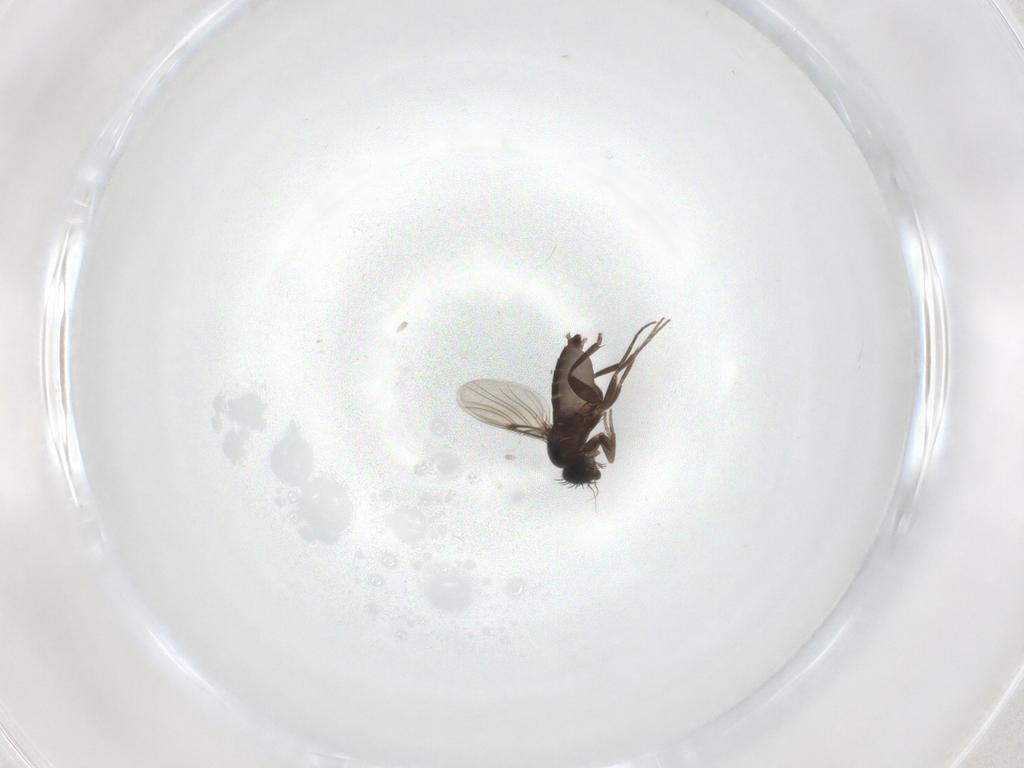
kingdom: Animalia
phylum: Arthropoda
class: Insecta
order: Diptera
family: Phoridae
